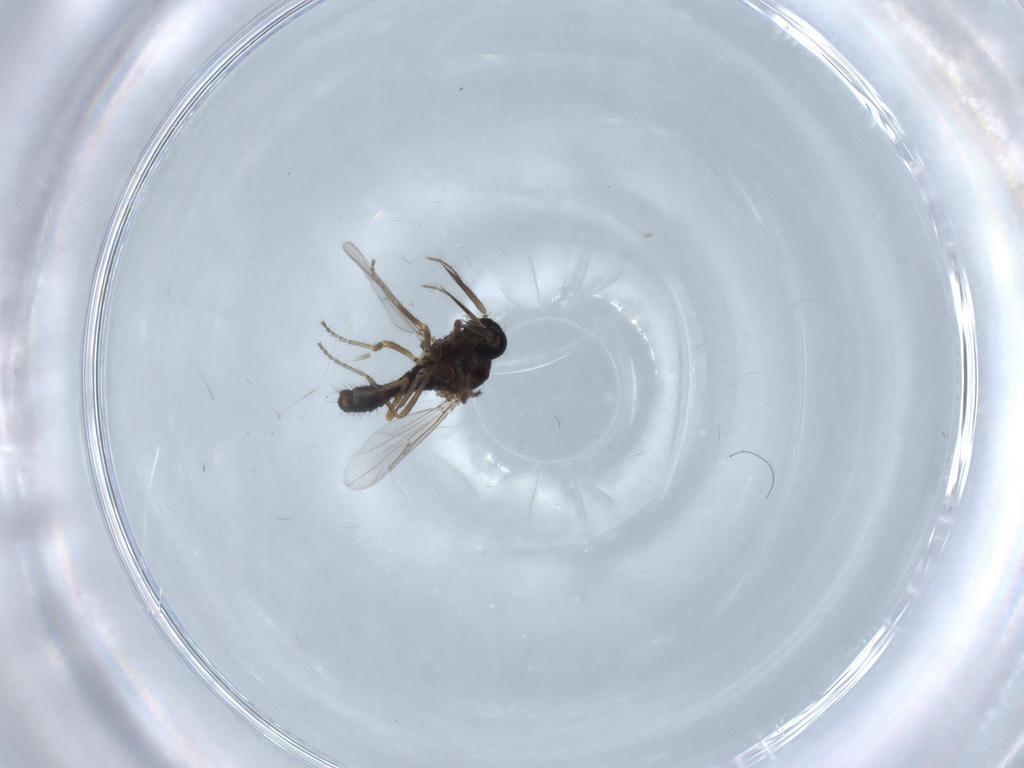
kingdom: Animalia
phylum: Arthropoda
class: Insecta
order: Diptera
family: Ceratopogonidae
